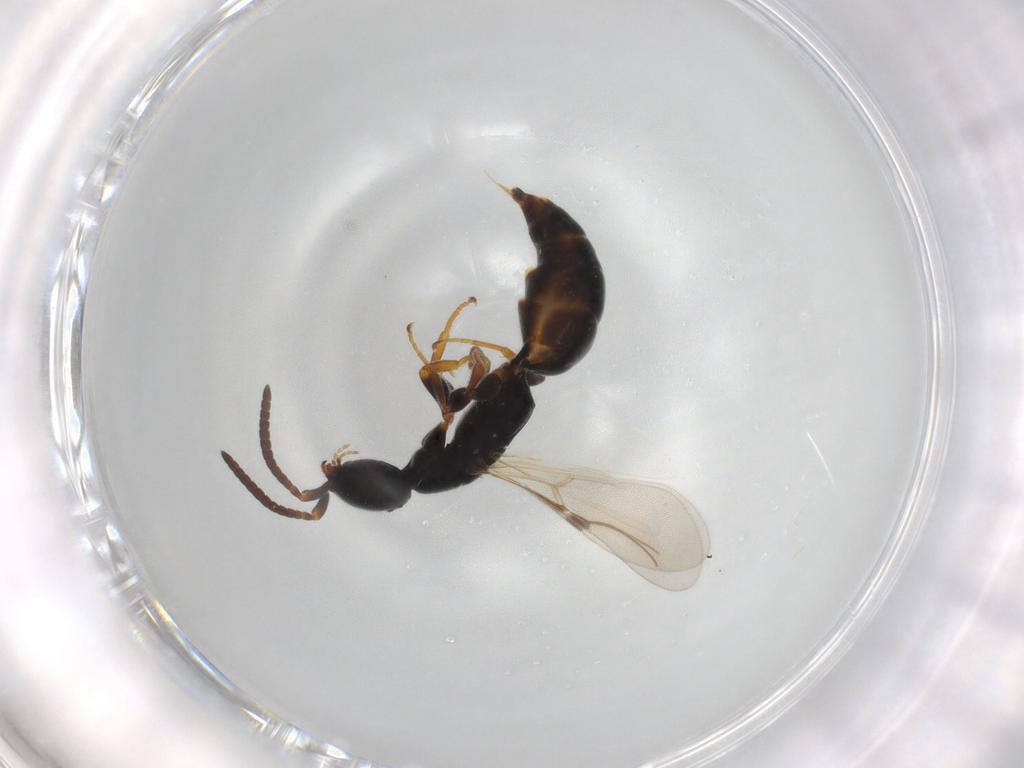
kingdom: Animalia
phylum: Arthropoda
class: Insecta
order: Hymenoptera
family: Bethylidae
